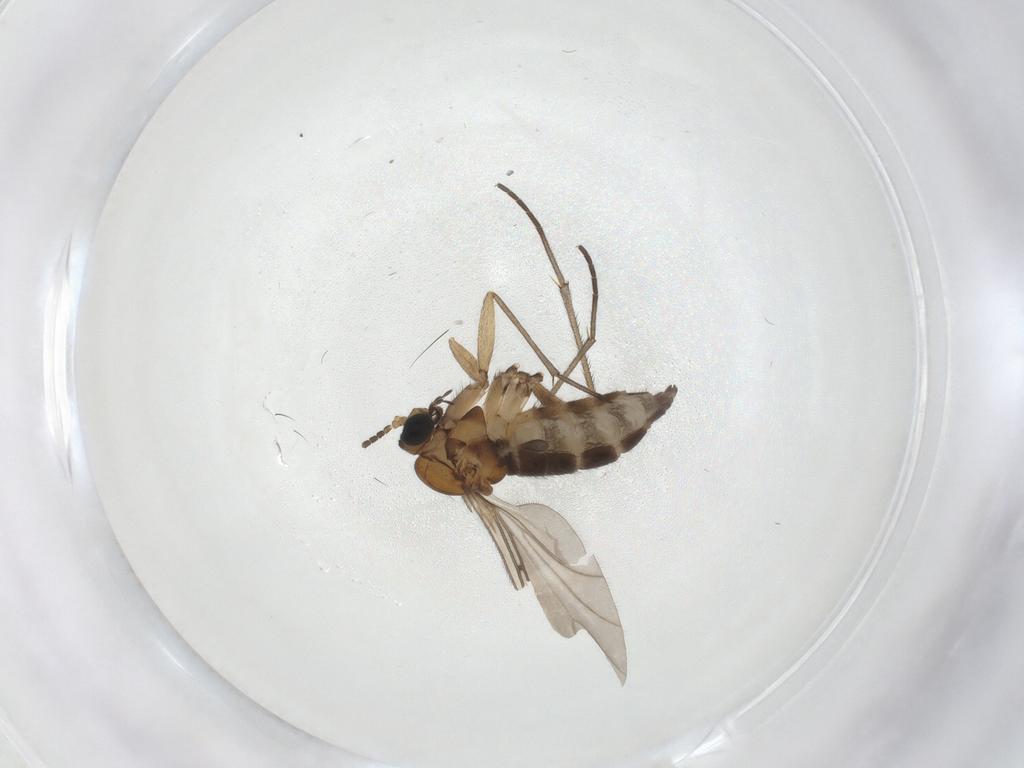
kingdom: Animalia
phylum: Arthropoda
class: Insecta
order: Diptera
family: Sciaridae
